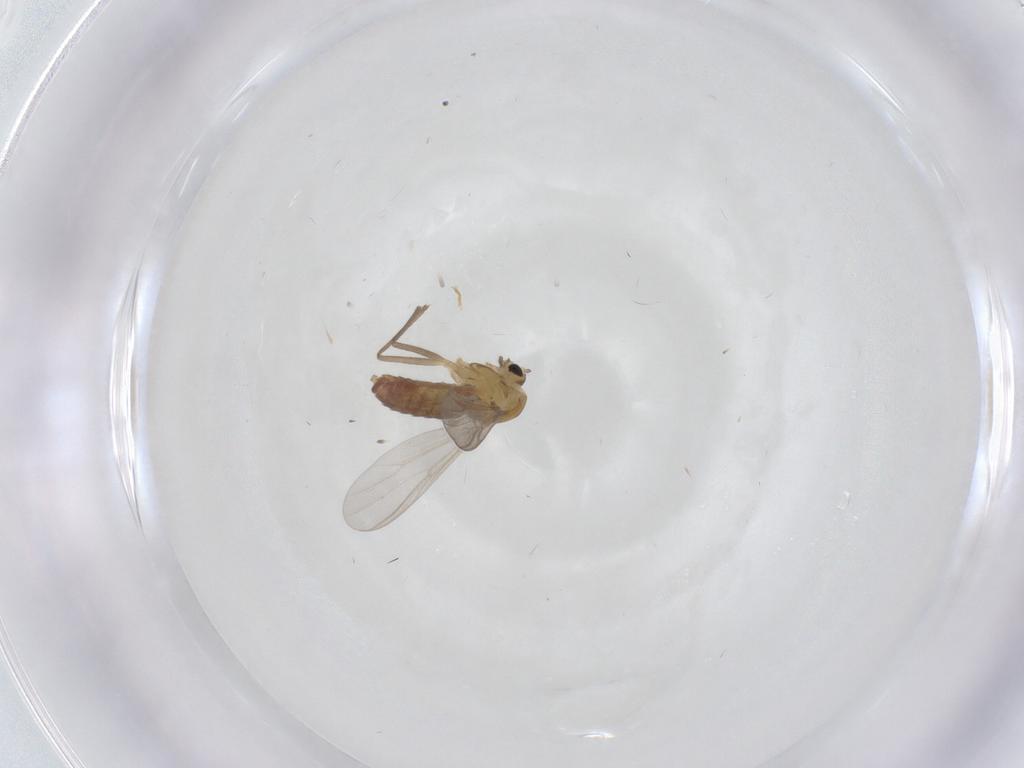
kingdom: Animalia
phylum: Arthropoda
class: Insecta
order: Diptera
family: Chironomidae
